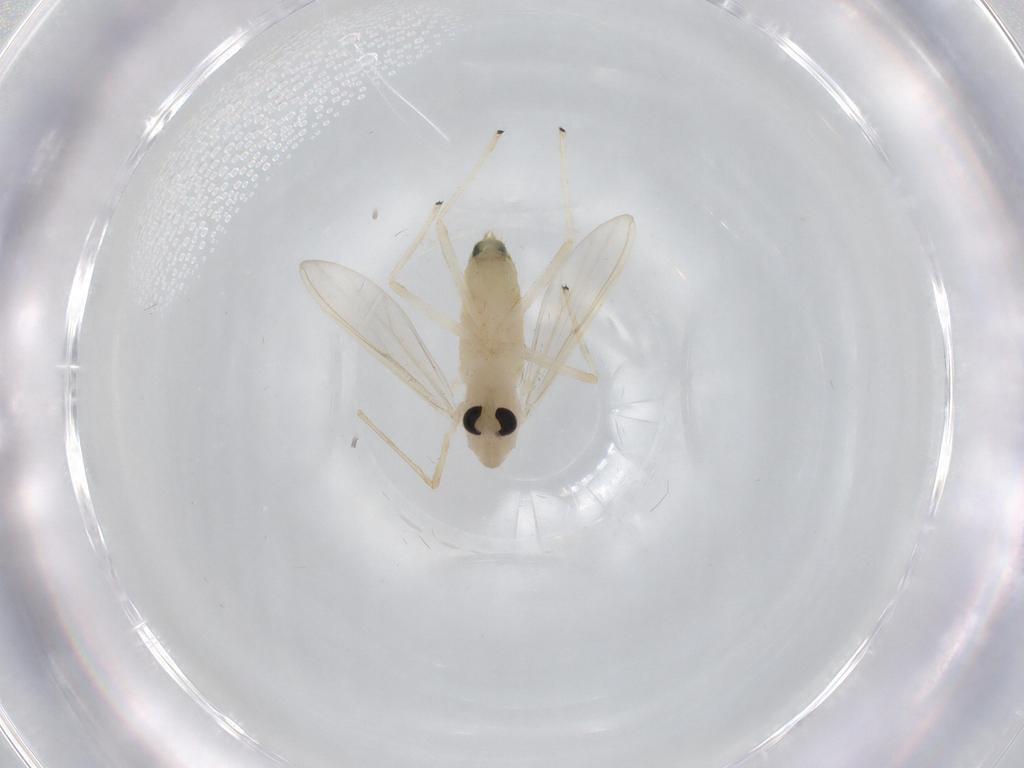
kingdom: Animalia
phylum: Arthropoda
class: Insecta
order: Diptera
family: Chironomidae
